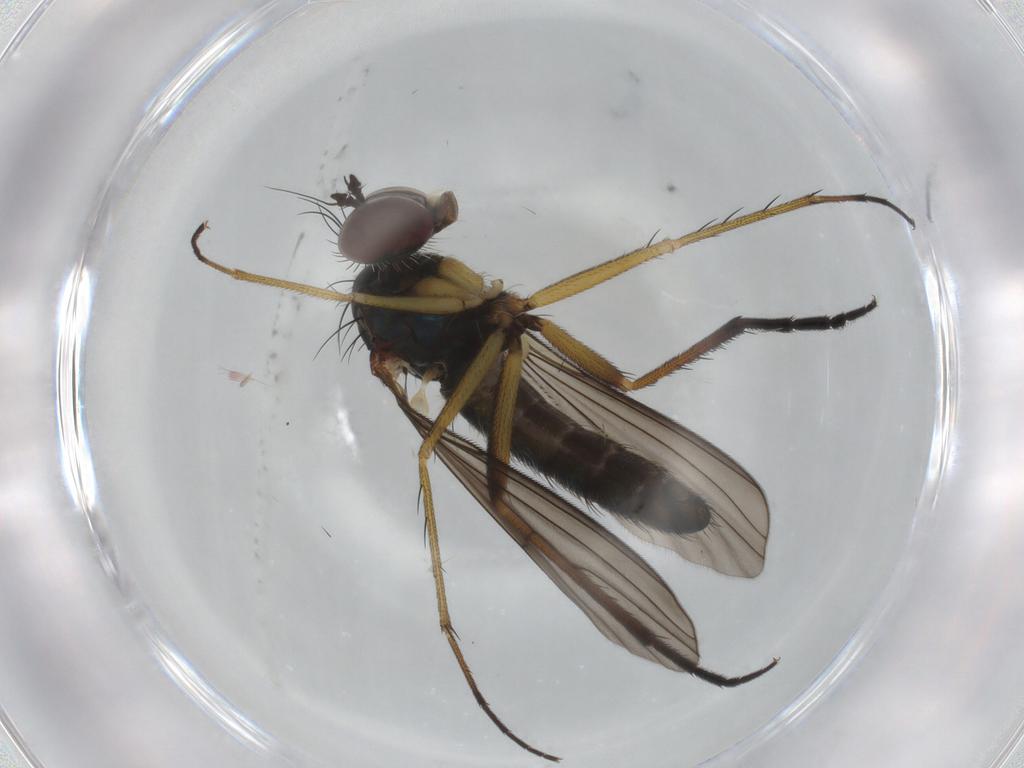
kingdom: Animalia
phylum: Arthropoda
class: Insecta
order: Diptera
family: Dolichopodidae
